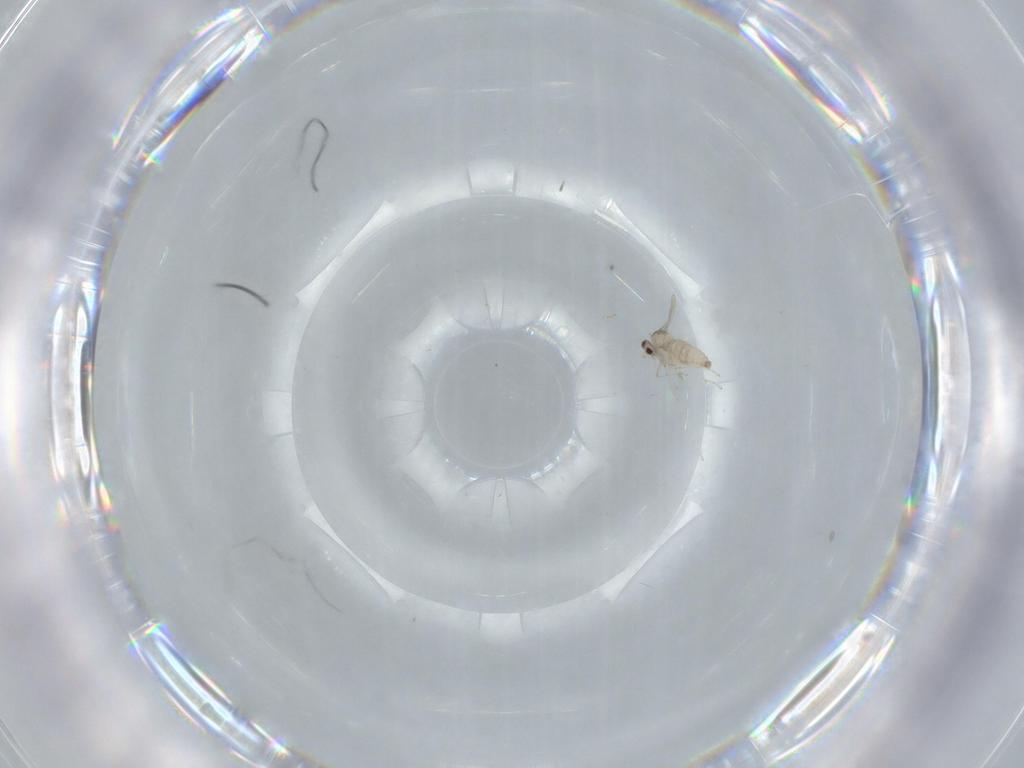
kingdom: Animalia
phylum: Arthropoda
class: Insecta
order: Diptera
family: Cecidomyiidae
